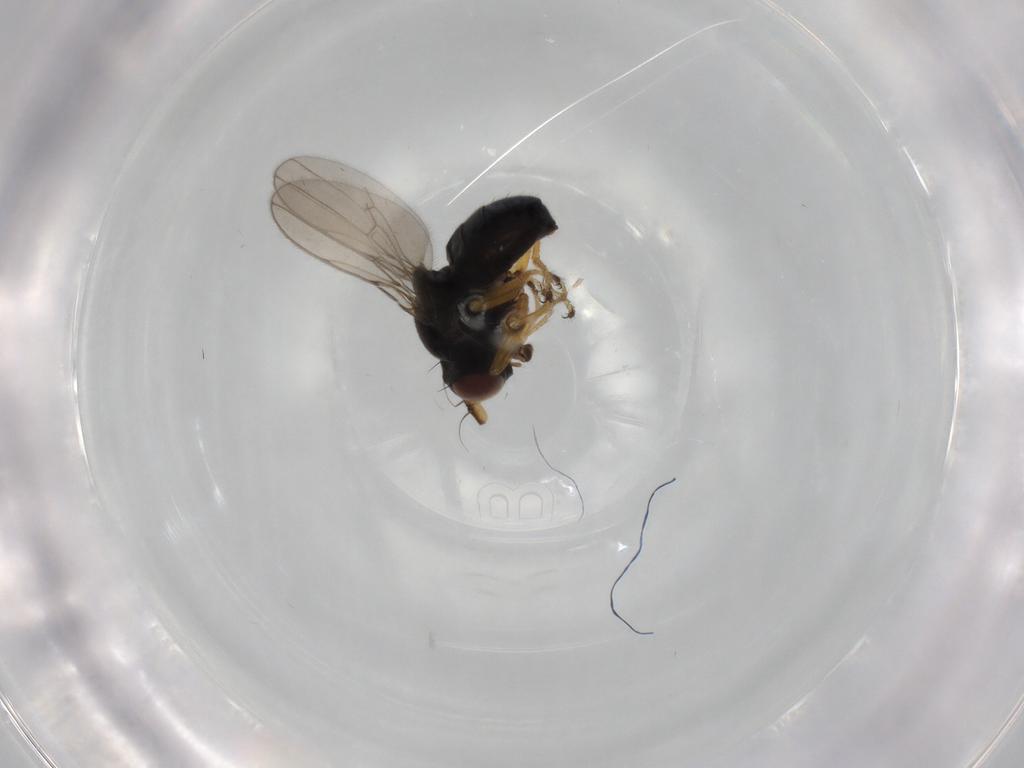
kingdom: Animalia
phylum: Arthropoda
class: Insecta
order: Diptera
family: Ephydridae
